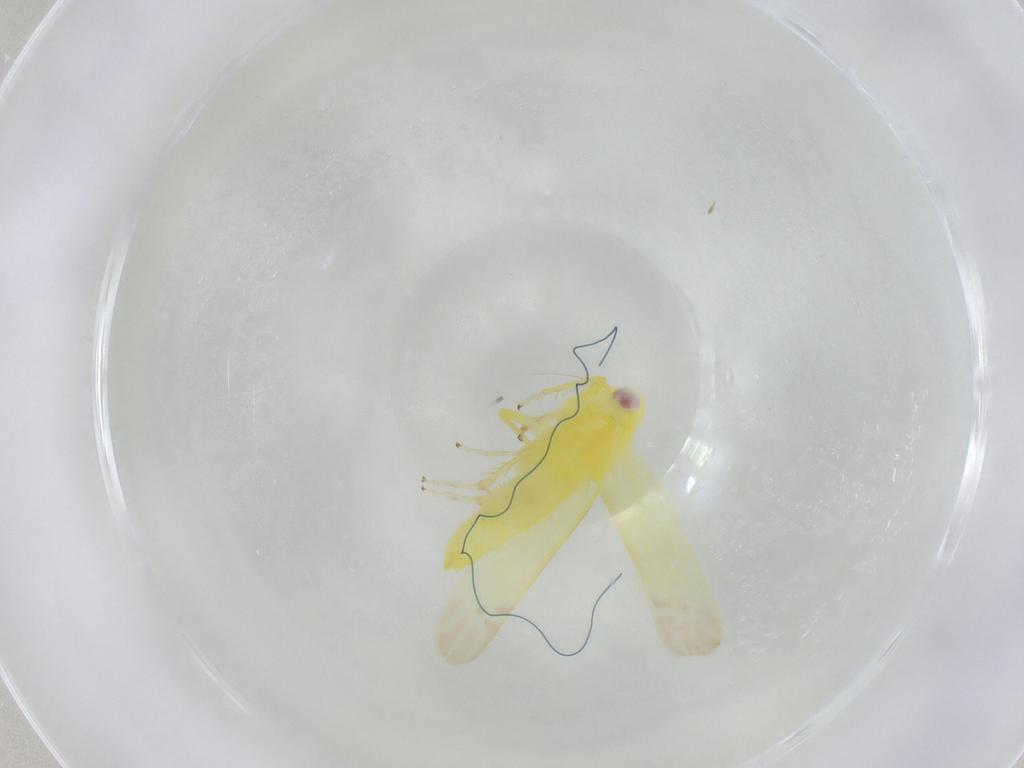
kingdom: Animalia
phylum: Arthropoda
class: Insecta
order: Hemiptera
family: Cicadellidae
